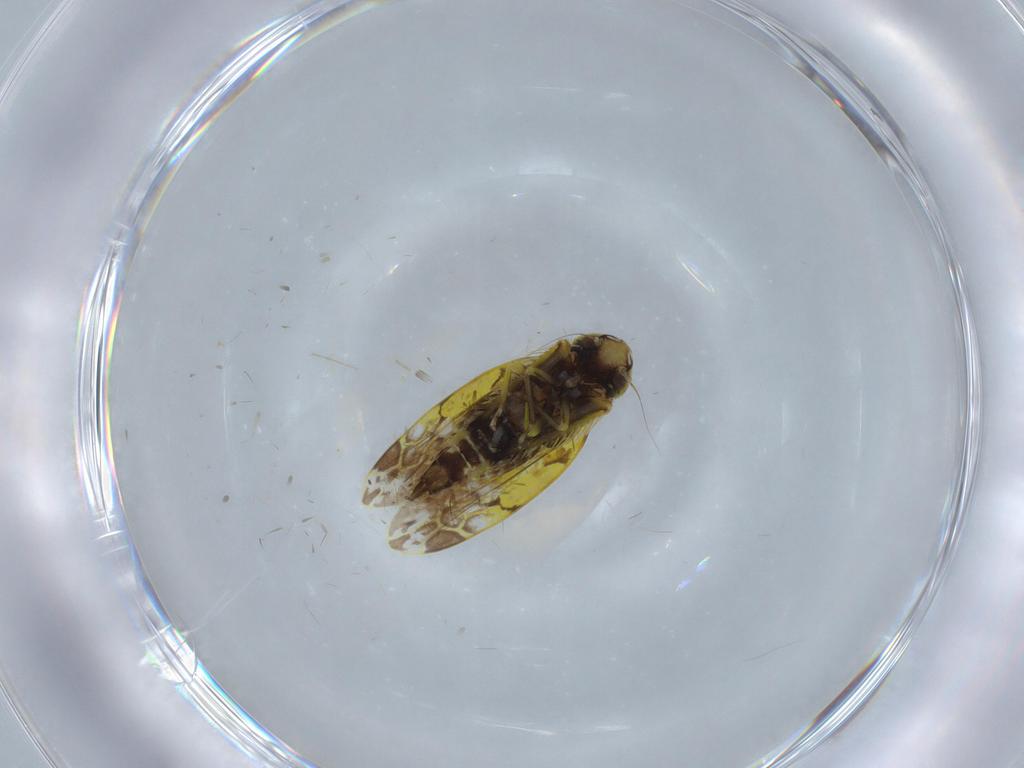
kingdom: Animalia
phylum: Arthropoda
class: Insecta
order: Hemiptera
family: Cicadellidae
